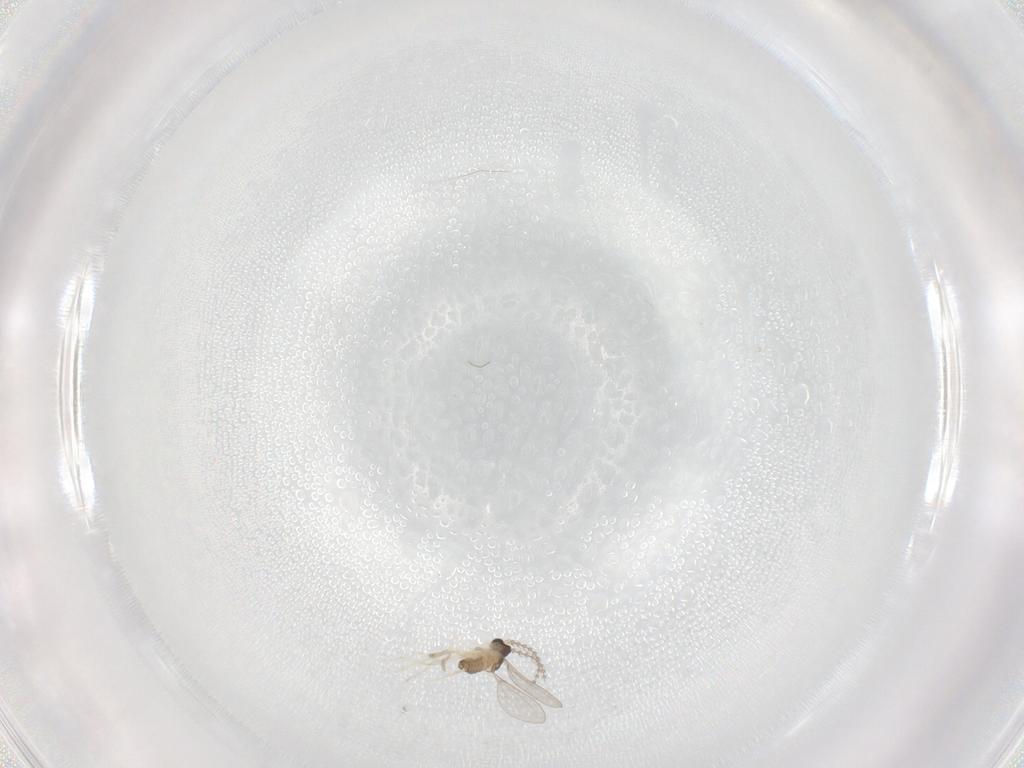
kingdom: Animalia
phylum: Arthropoda
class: Insecta
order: Diptera
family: Cecidomyiidae
